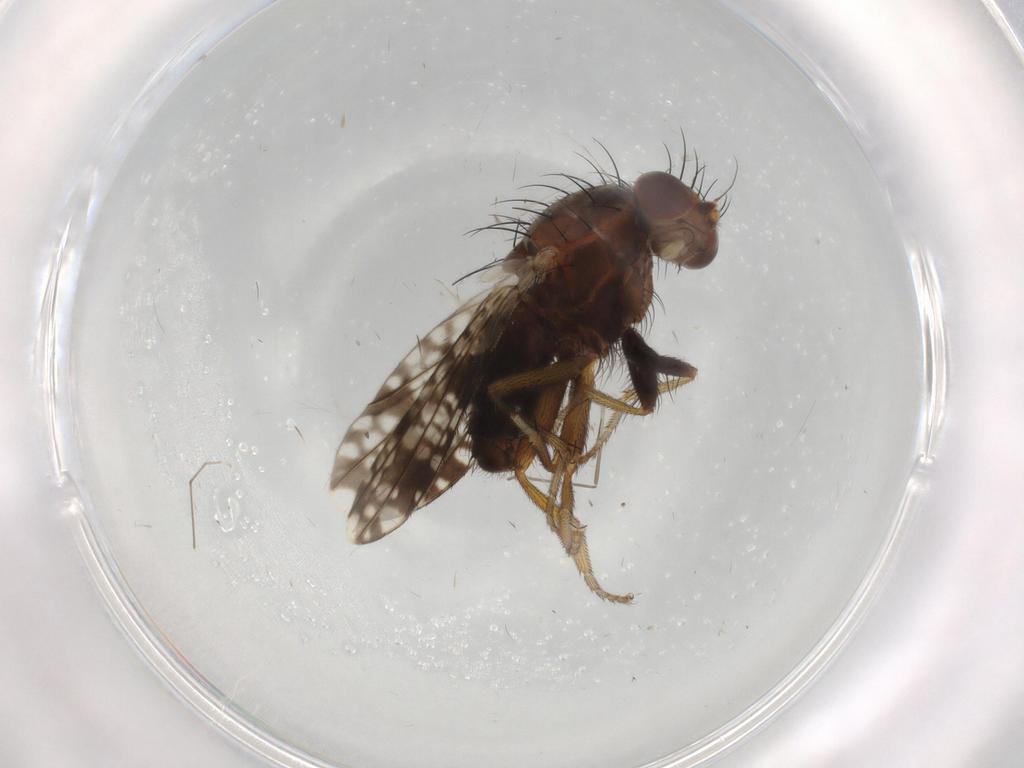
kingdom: Animalia
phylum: Arthropoda
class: Insecta
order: Diptera
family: Tephritidae
